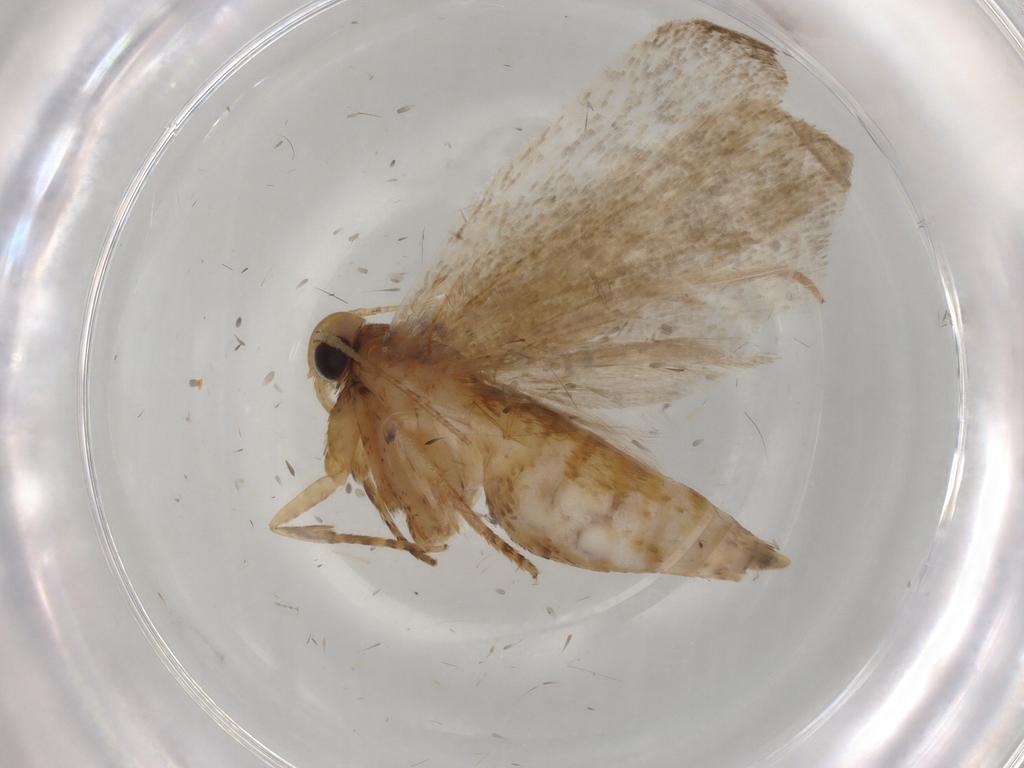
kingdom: Animalia
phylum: Arthropoda
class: Insecta
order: Lepidoptera
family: Autostichidae
